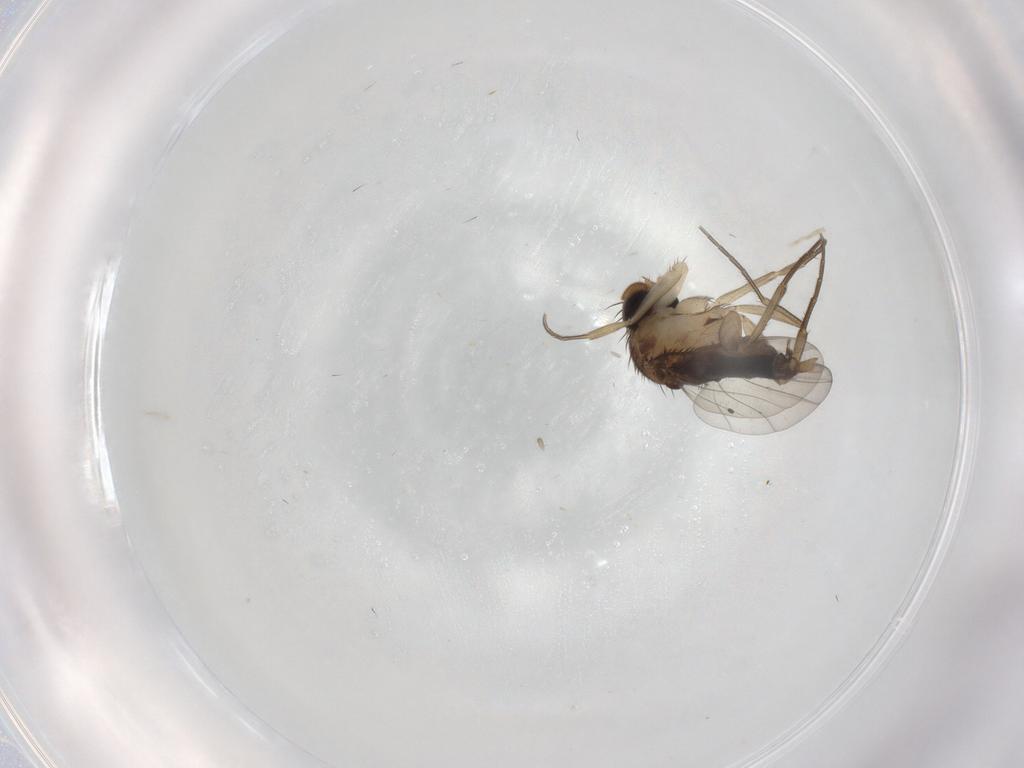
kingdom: Animalia
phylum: Arthropoda
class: Insecta
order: Diptera
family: Phoridae
